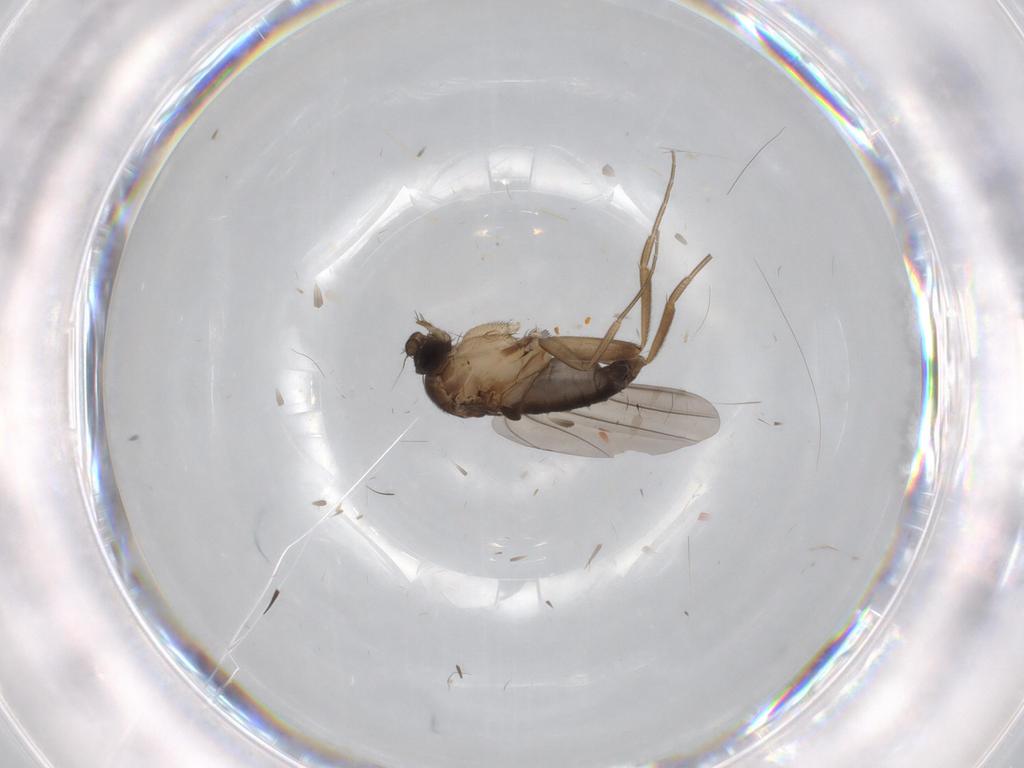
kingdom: Animalia
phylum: Arthropoda
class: Insecta
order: Diptera
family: Phoridae
